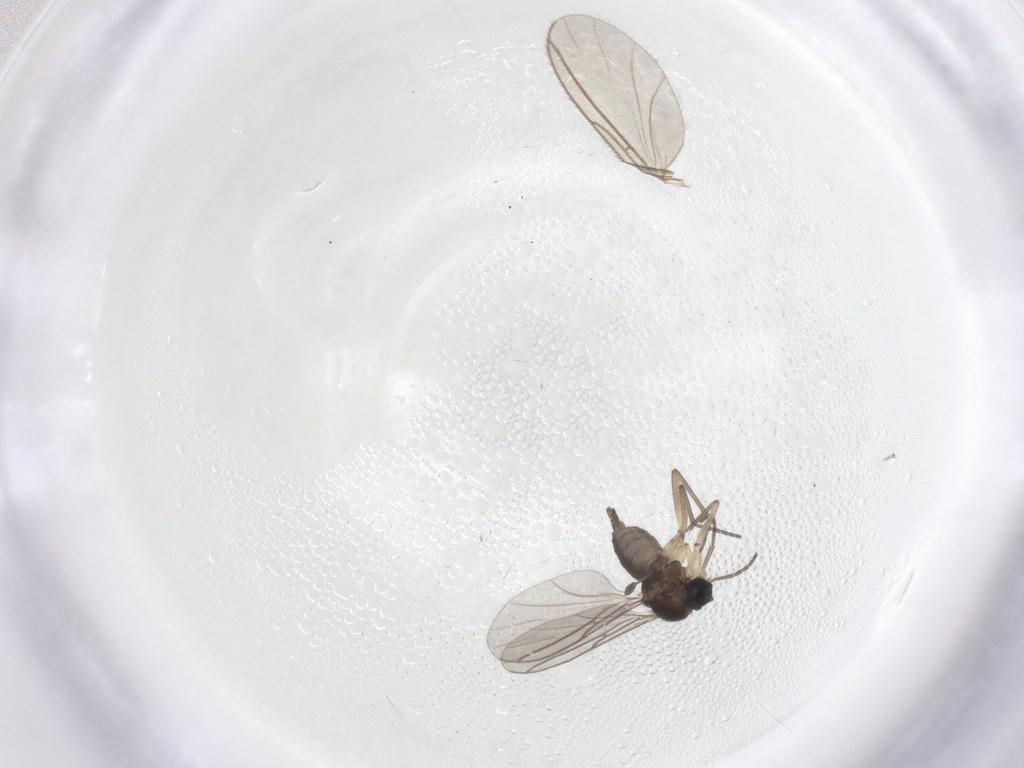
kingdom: Animalia
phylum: Arthropoda
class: Insecta
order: Diptera
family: Sciaridae
